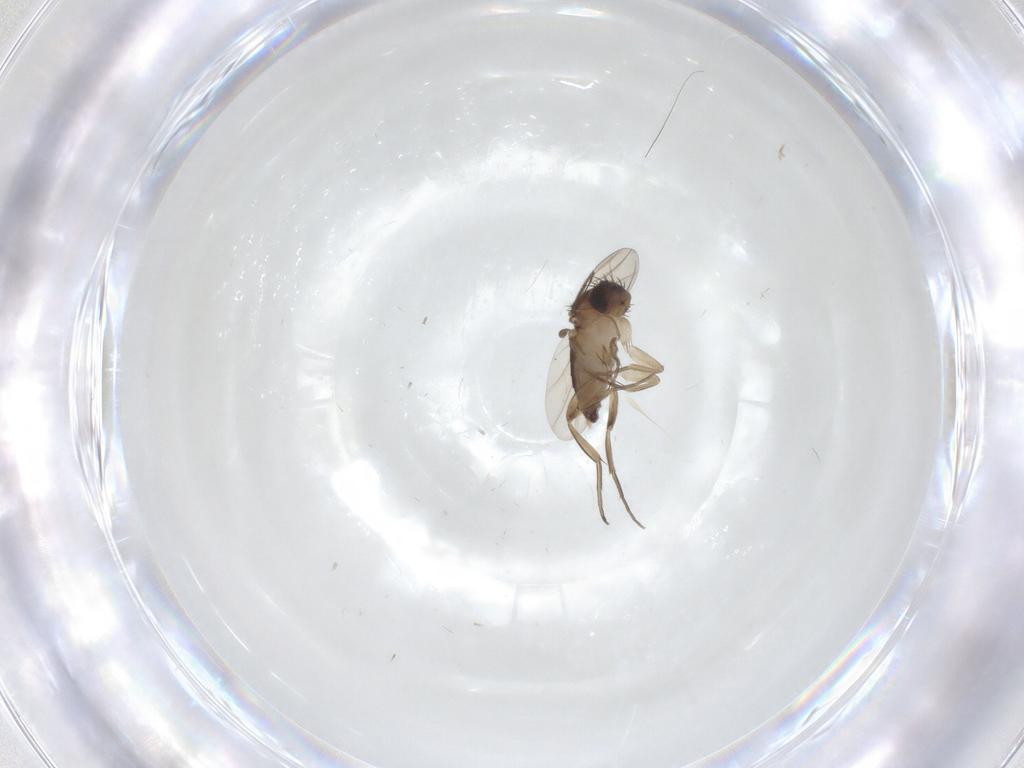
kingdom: Animalia
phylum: Arthropoda
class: Insecta
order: Diptera
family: Phoridae
